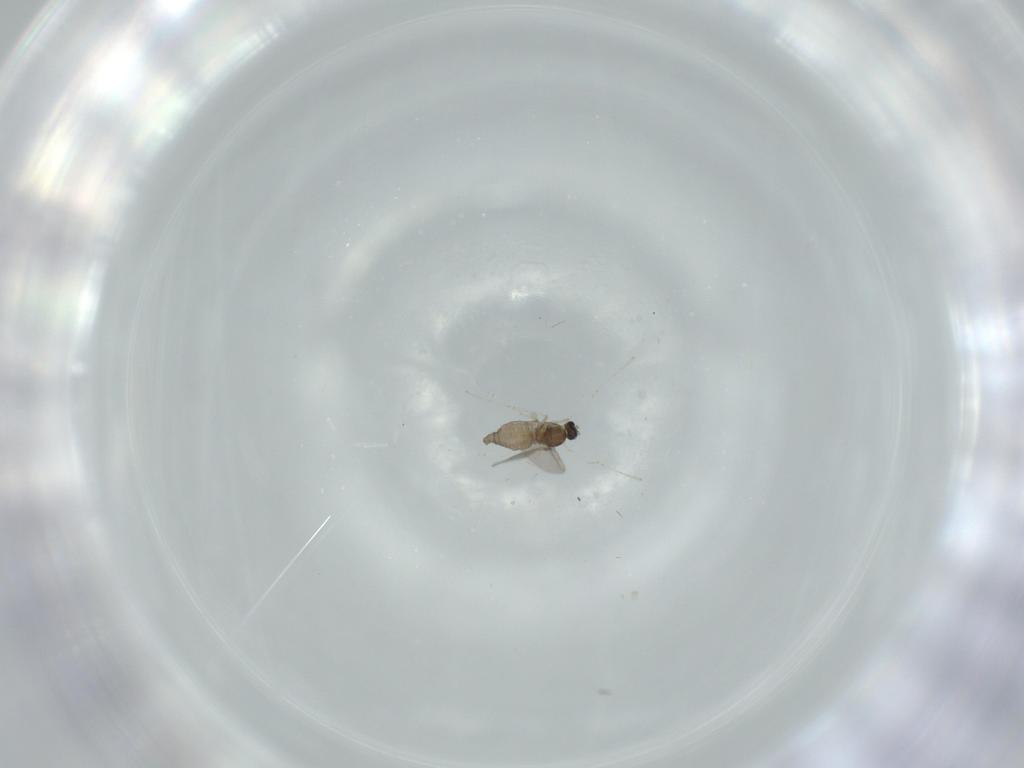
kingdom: Animalia
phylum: Arthropoda
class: Insecta
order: Diptera
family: Cecidomyiidae
